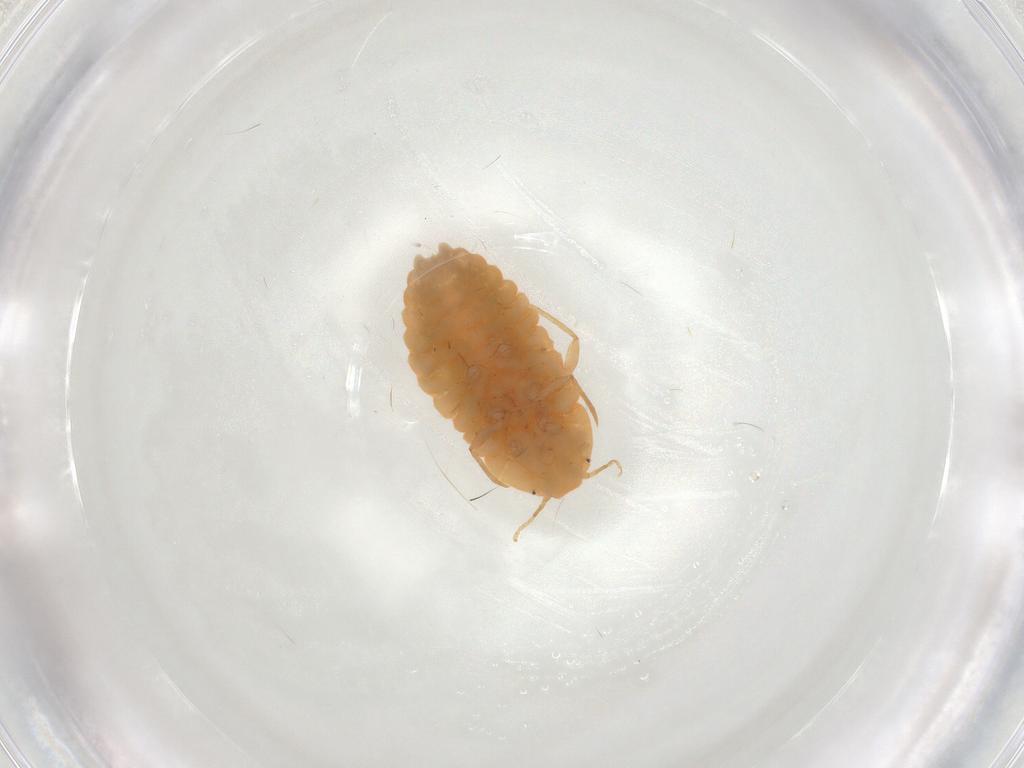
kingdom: Animalia
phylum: Arthropoda
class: Insecta
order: Hemiptera
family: Pseudococcidae
